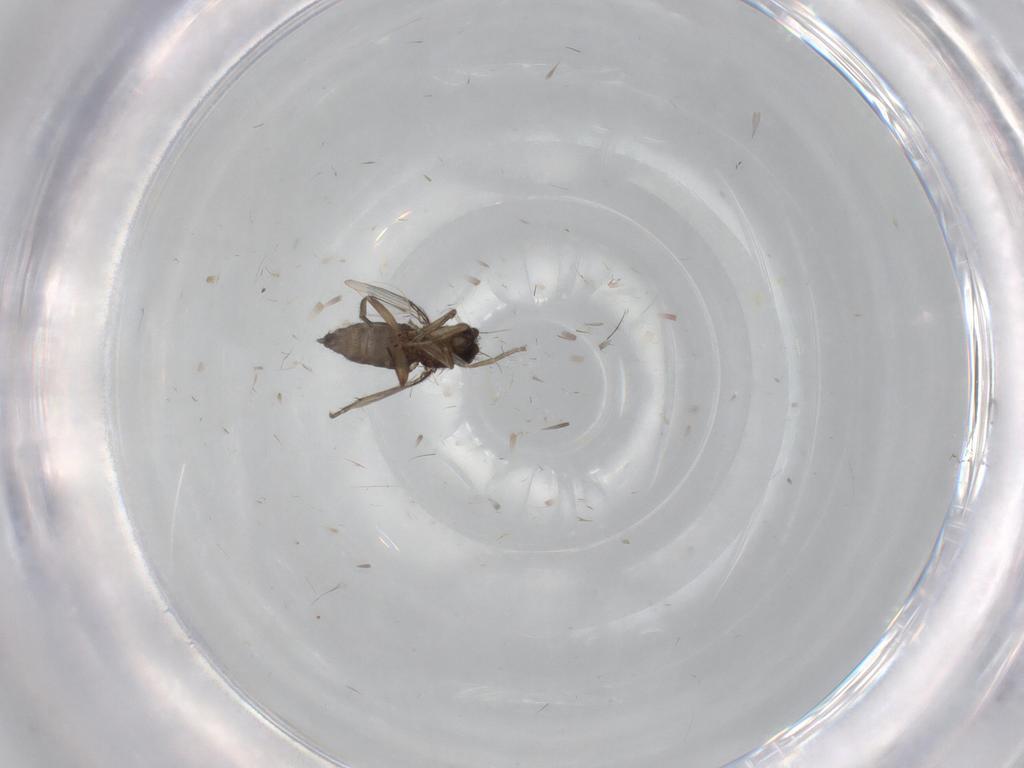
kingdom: Animalia
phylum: Arthropoda
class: Insecta
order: Diptera
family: Phoridae
